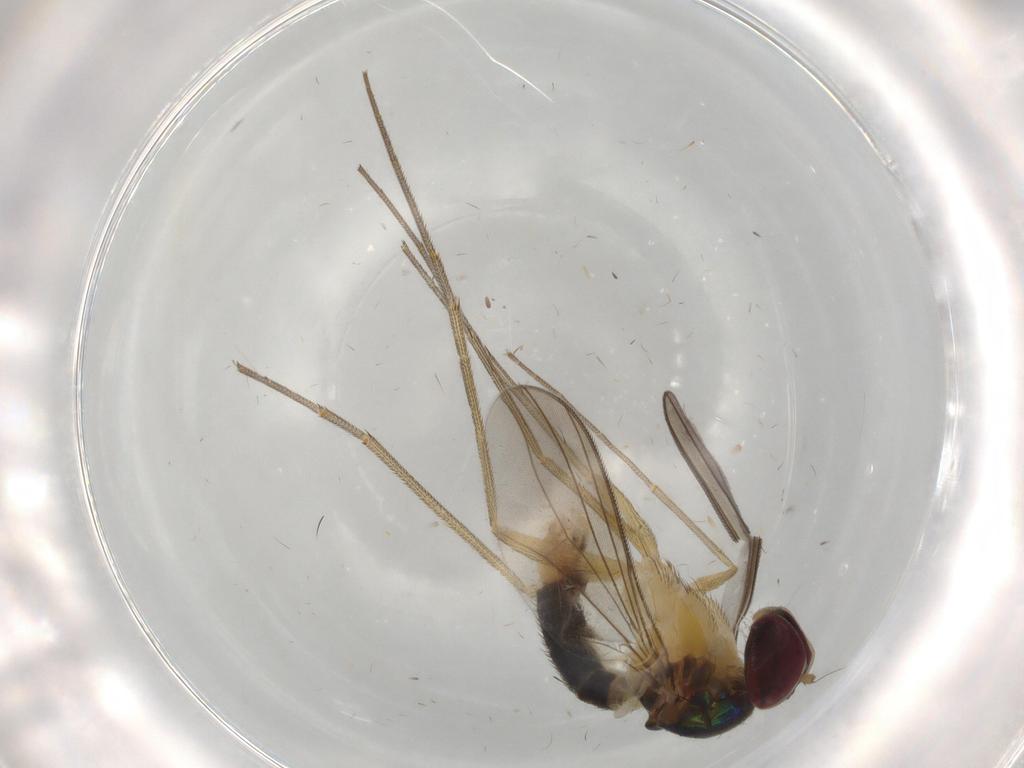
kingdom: Animalia
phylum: Arthropoda
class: Insecta
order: Diptera
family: Dolichopodidae
